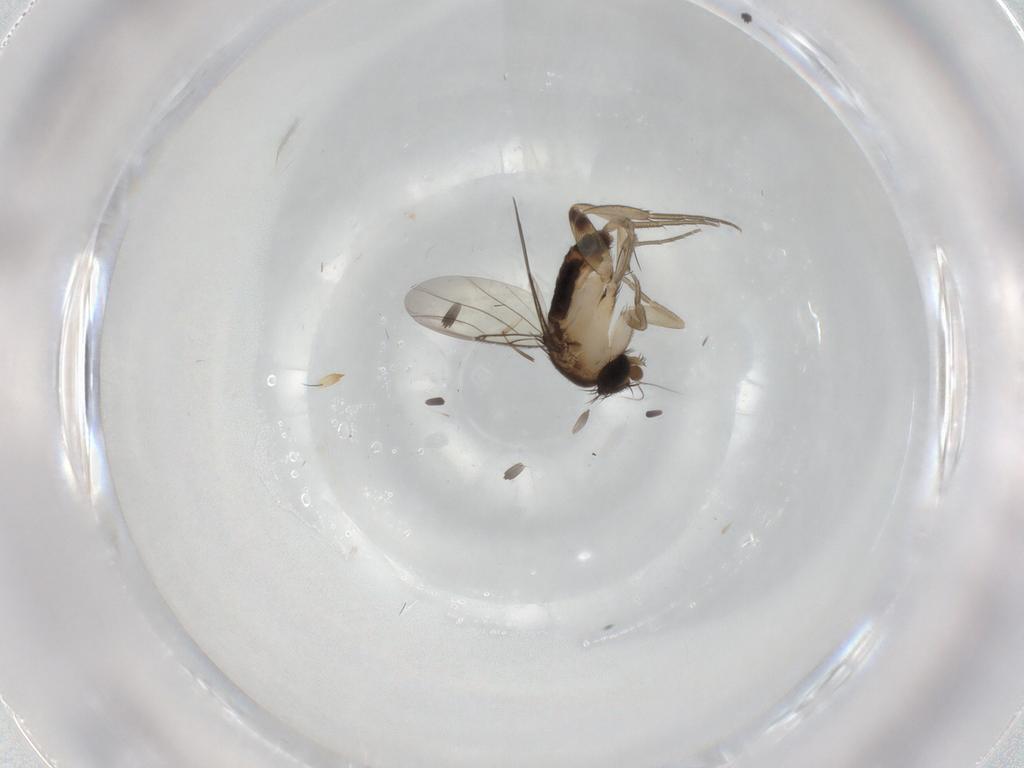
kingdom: Animalia
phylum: Arthropoda
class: Insecta
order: Diptera
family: Phoridae
